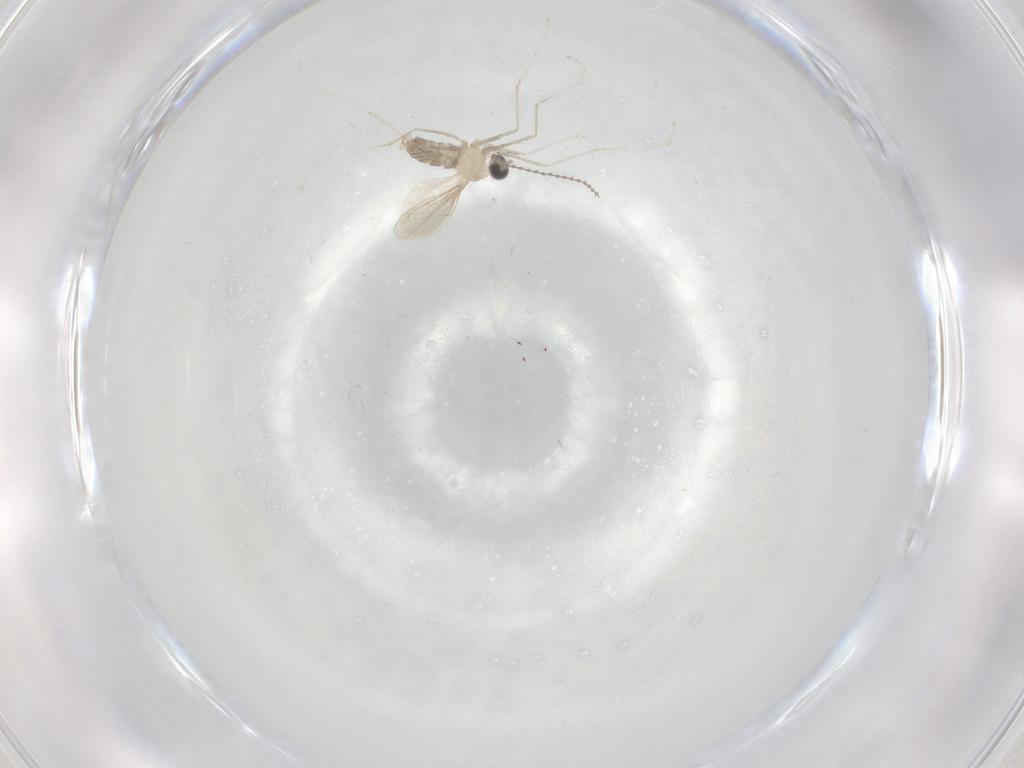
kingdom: Animalia
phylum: Arthropoda
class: Insecta
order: Diptera
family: Cecidomyiidae
